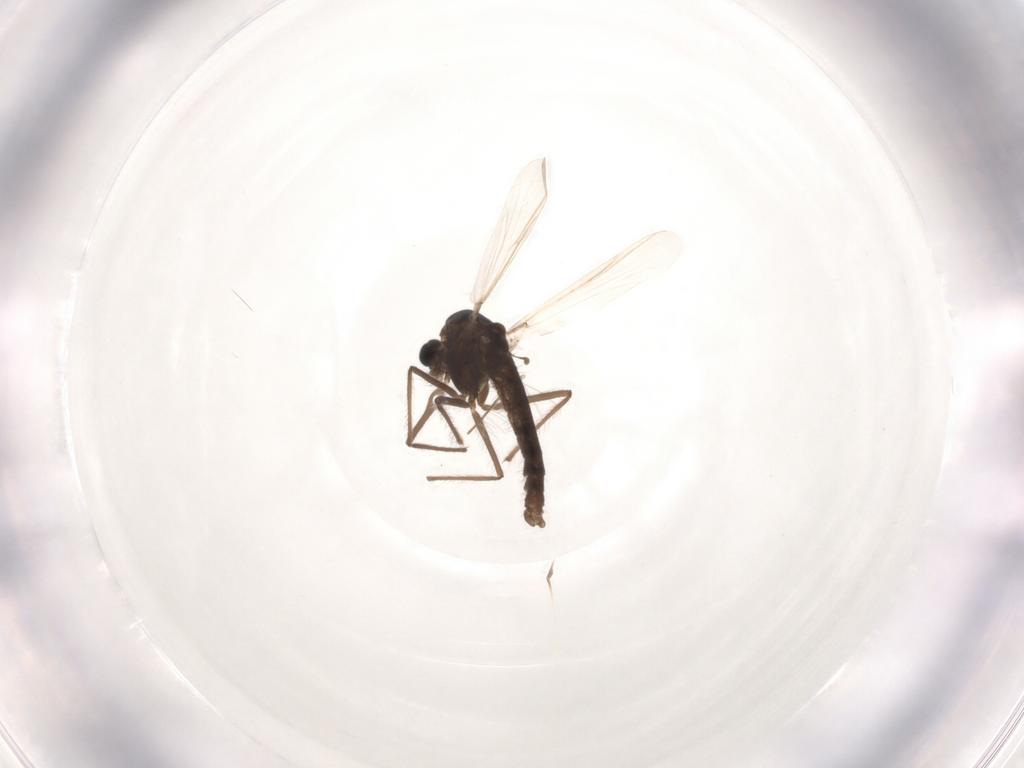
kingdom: Animalia
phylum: Arthropoda
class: Insecta
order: Diptera
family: Chironomidae
